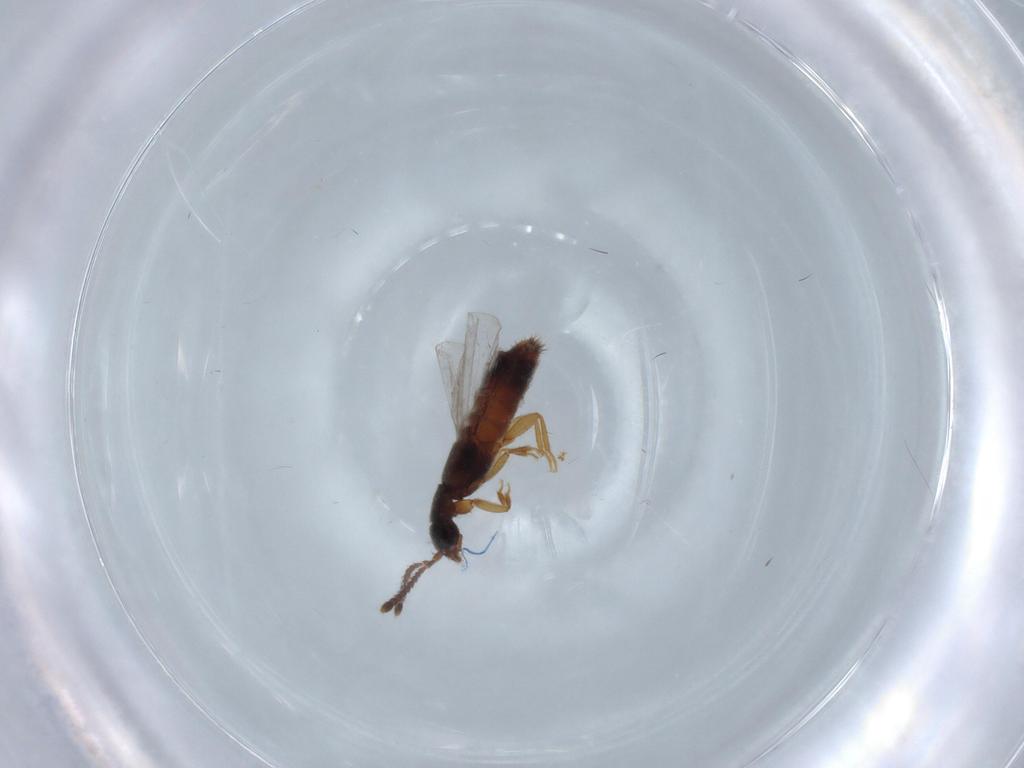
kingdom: Animalia
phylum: Arthropoda
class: Insecta
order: Coleoptera
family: Staphylinidae
